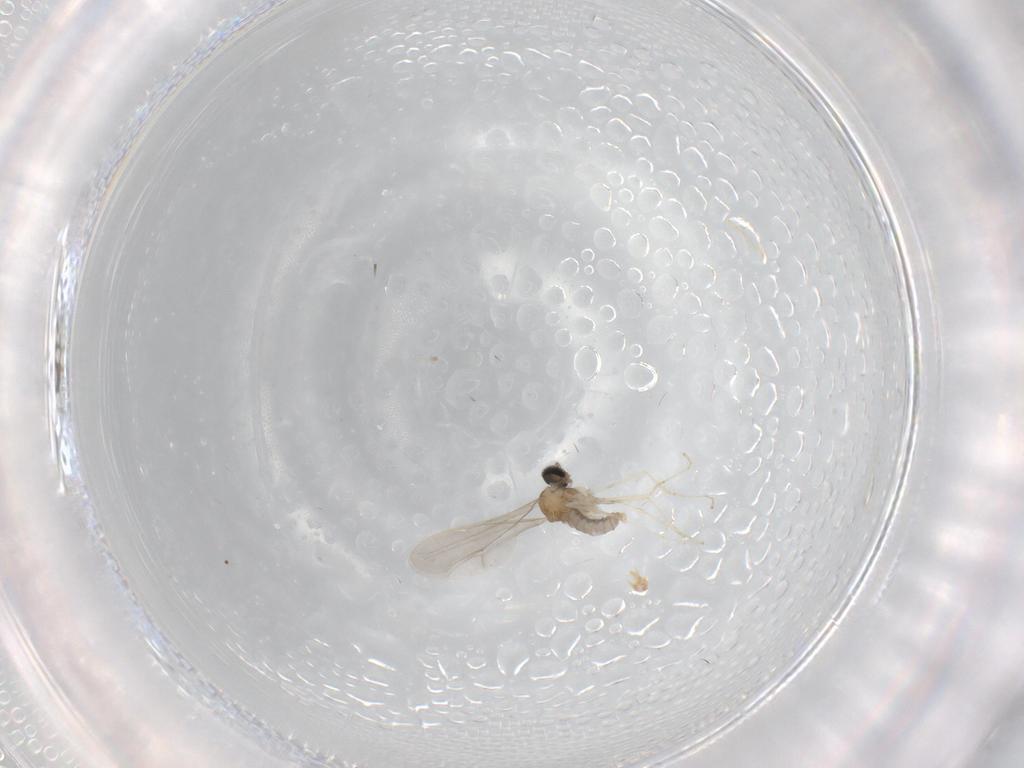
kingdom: Animalia
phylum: Arthropoda
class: Insecta
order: Diptera
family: Cecidomyiidae
